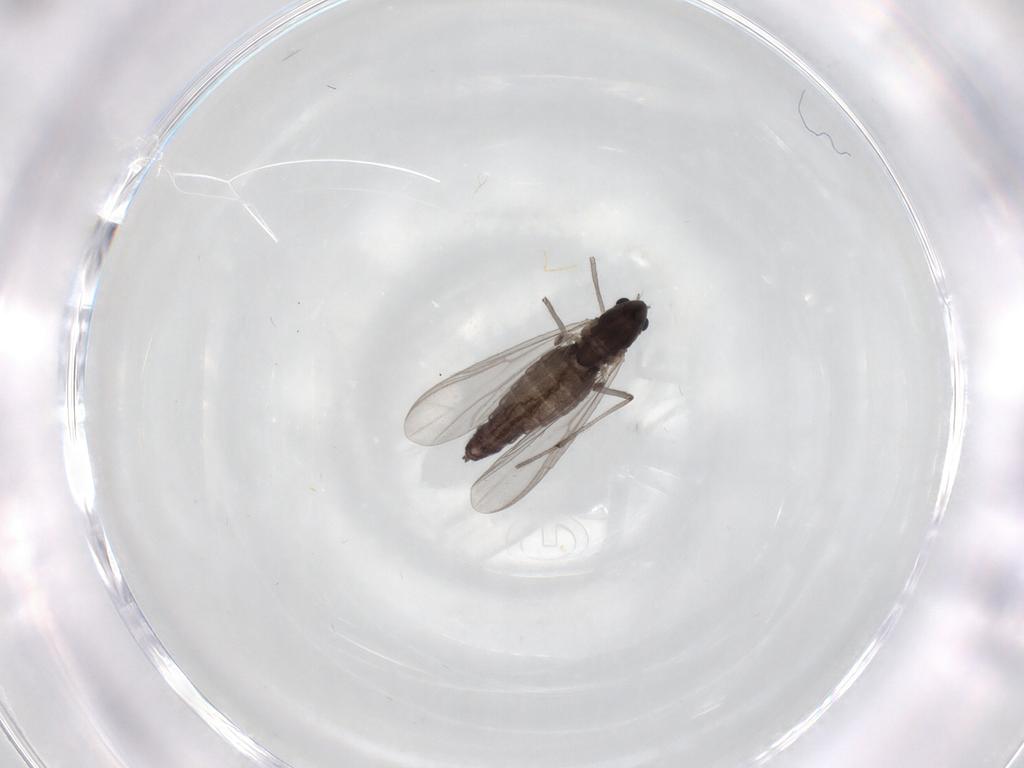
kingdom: Animalia
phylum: Arthropoda
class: Insecta
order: Diptera
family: Chironomidae
